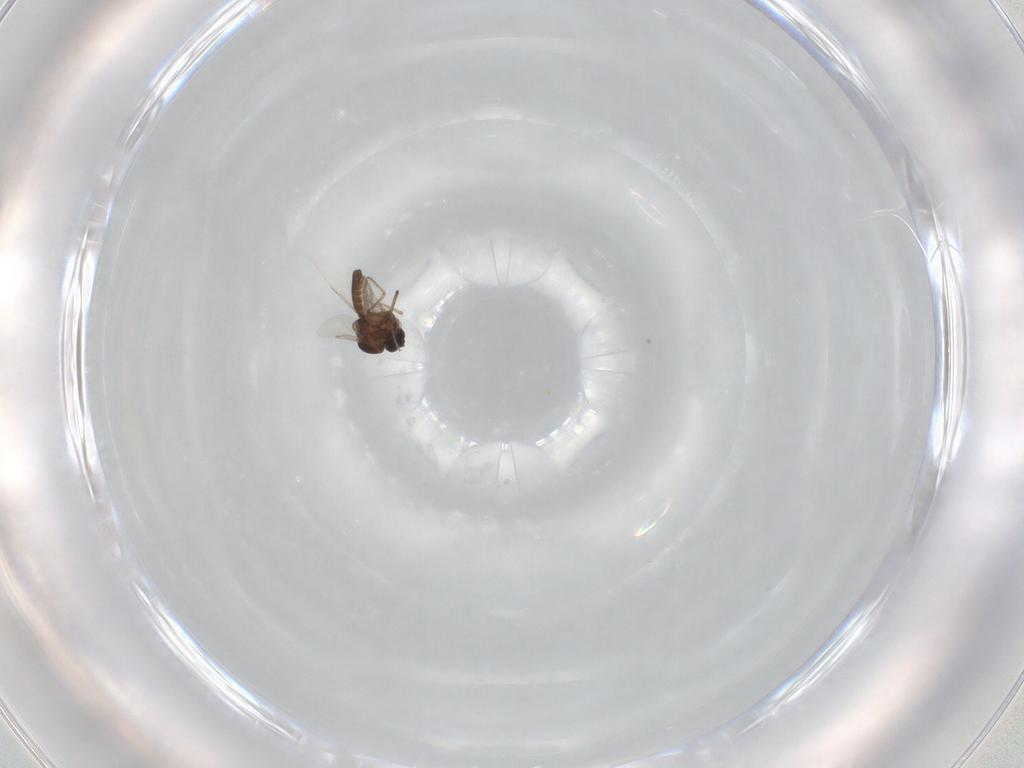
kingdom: Animalia
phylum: Arthropoda
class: Insecta
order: Diptera
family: Ceratopogonidae
